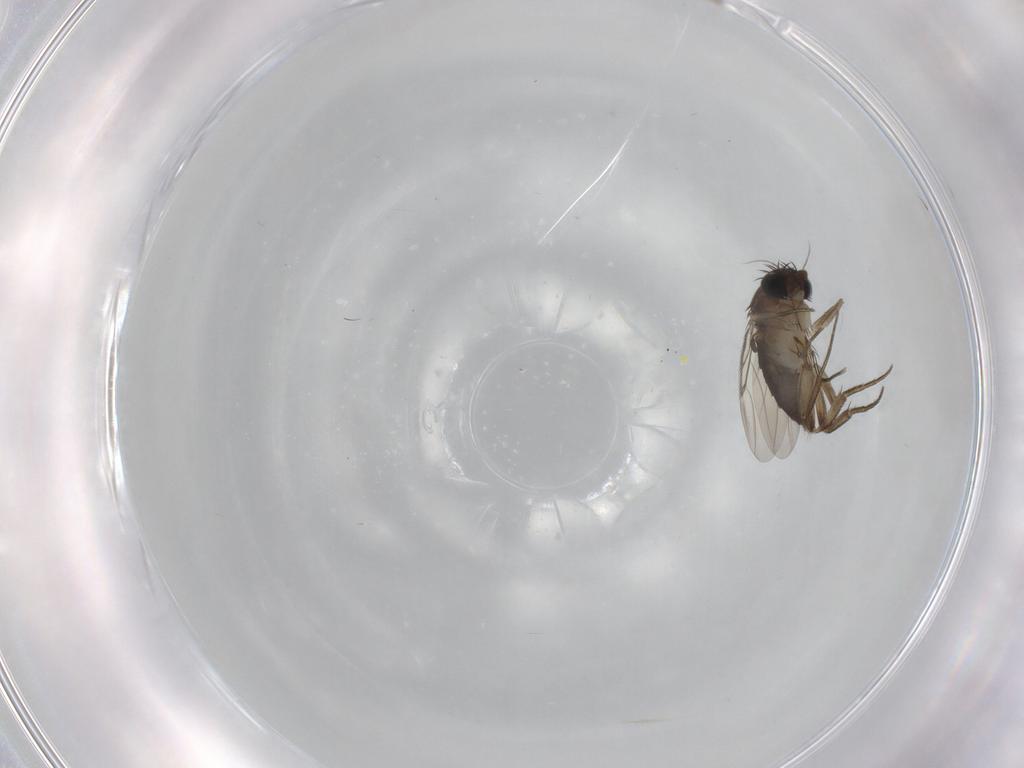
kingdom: Animalia
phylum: Arthropoda
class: Insecta
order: Diptera
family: Phoridae
